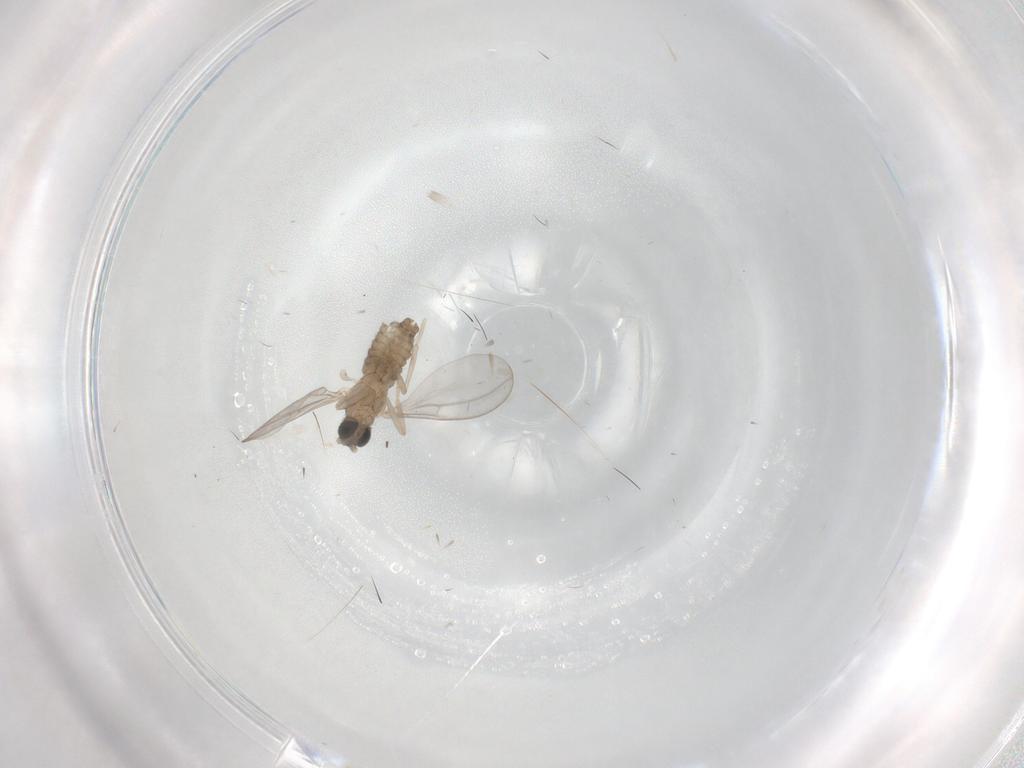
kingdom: Animalia
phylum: Arthropoda
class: Insecta
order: Diptera
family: Cecidomyiidae
